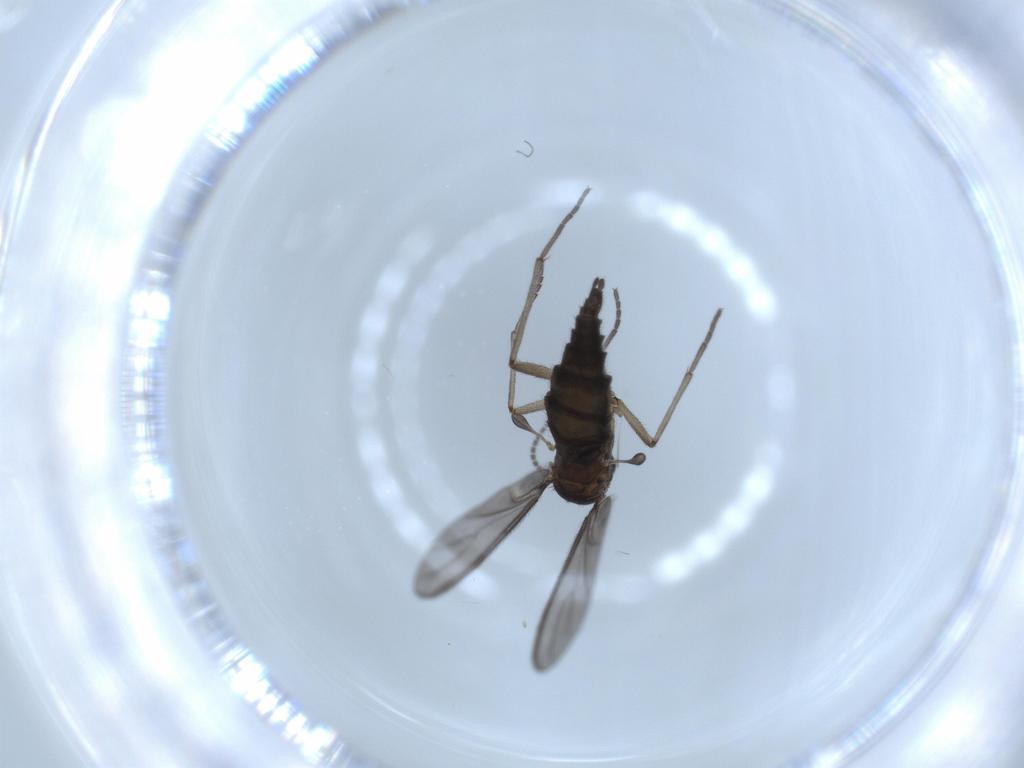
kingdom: Animalia
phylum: Arthropoda
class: Insecta
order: Diptera
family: Sciaridae
